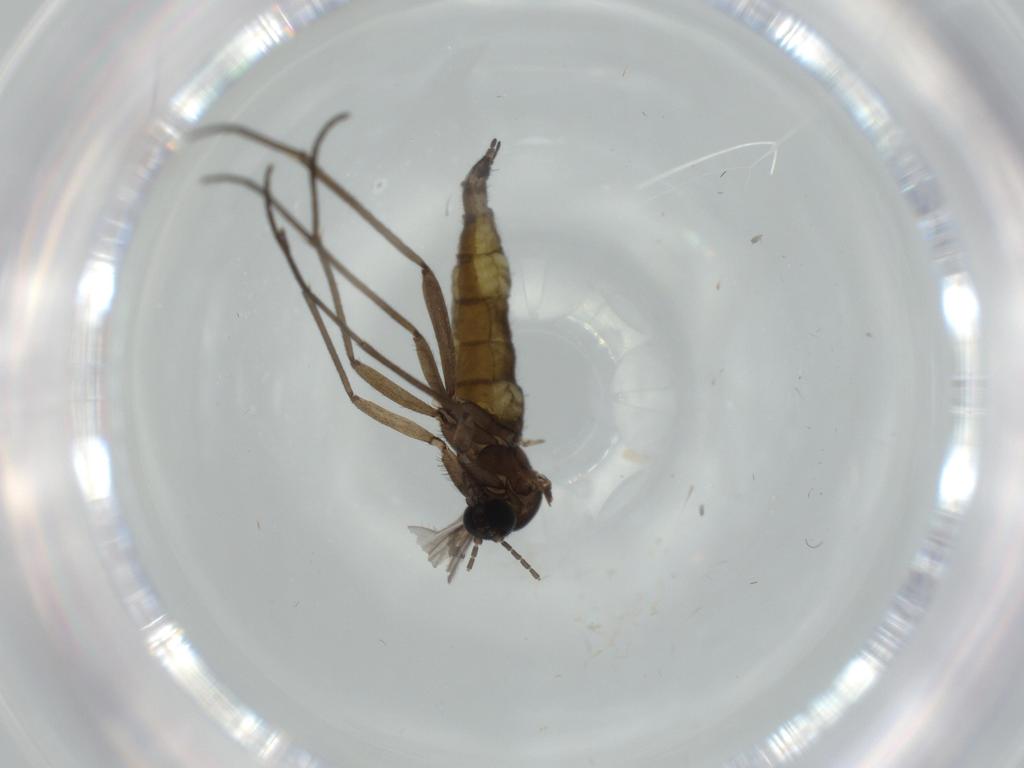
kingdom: Animalia
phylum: Arthropoda
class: Insecta
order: Diptera
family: Sciaridae
